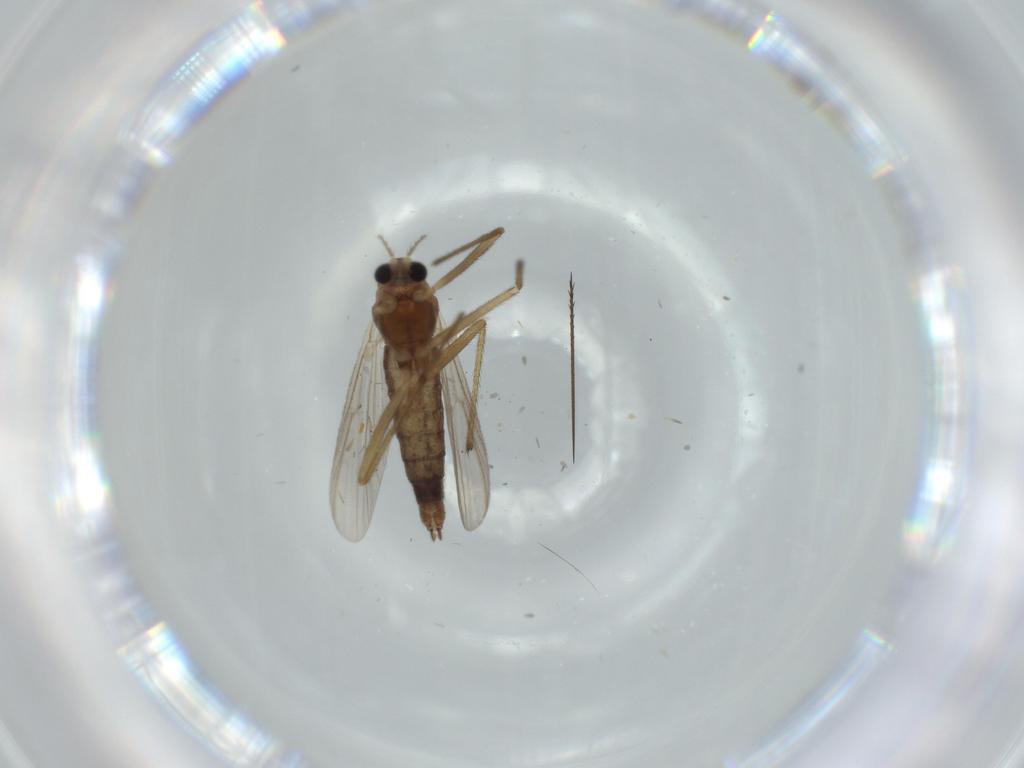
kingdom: Animalia
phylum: Arthropoda
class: Insecta
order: Diptera
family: Chironomidae
